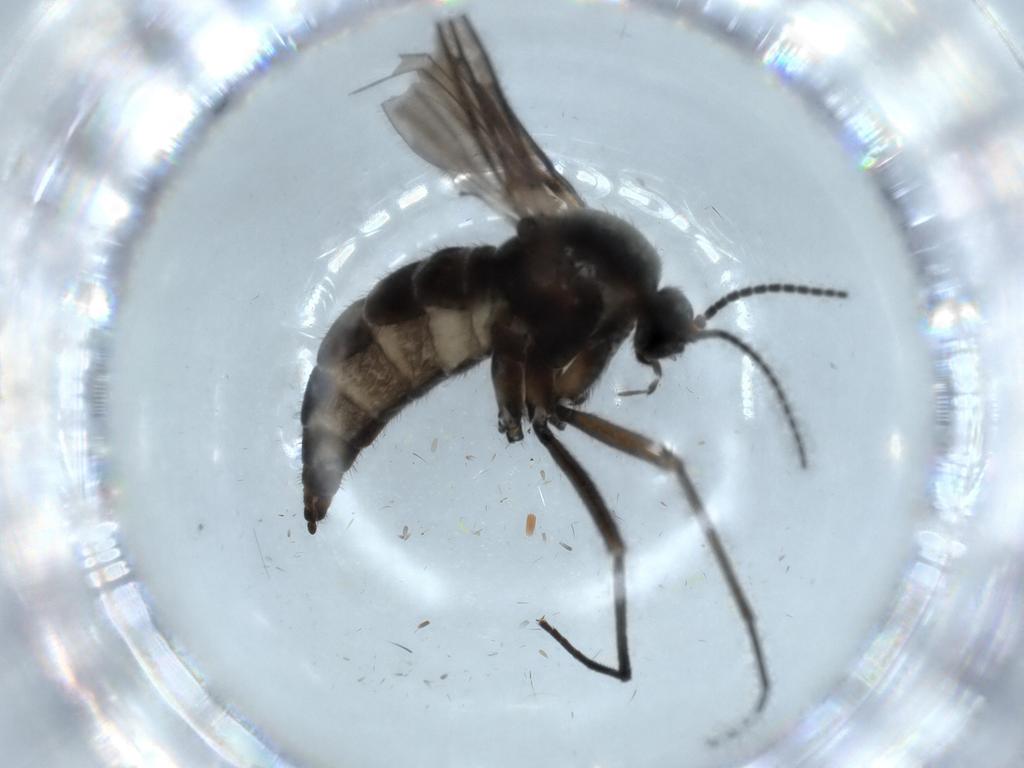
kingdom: Animalia
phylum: Arthropoda
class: Insecta
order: Diptera
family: Sciaridae
